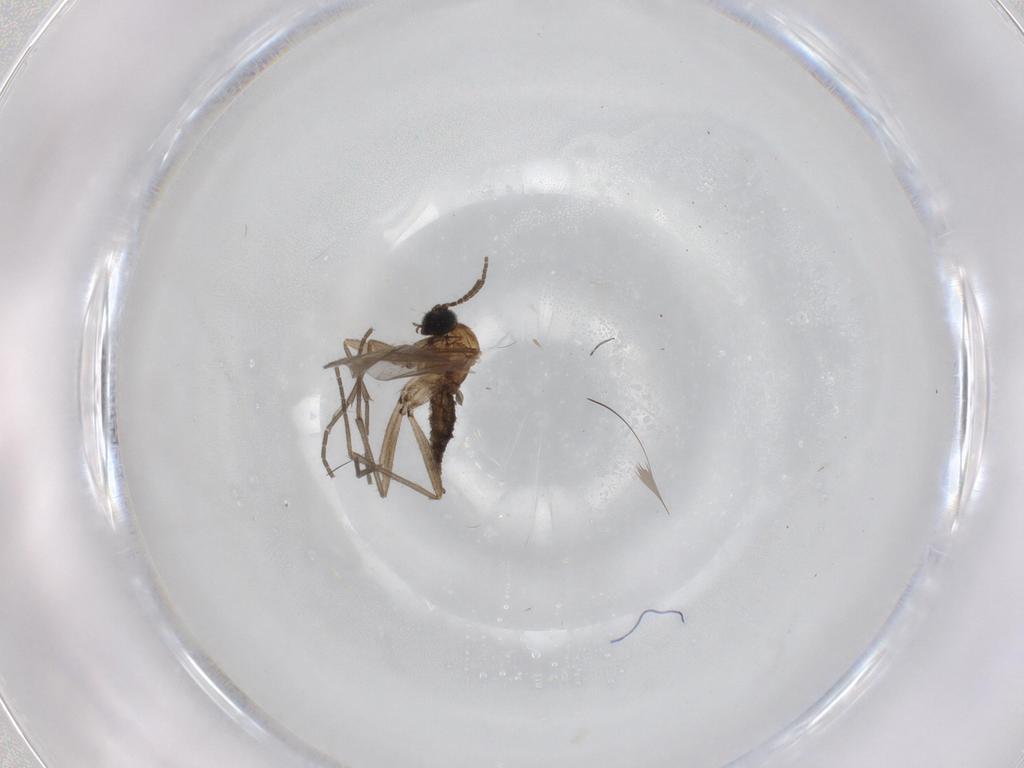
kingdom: Animalia
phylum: Arthropoda
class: Insecta
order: Diptera
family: Sciaridae
